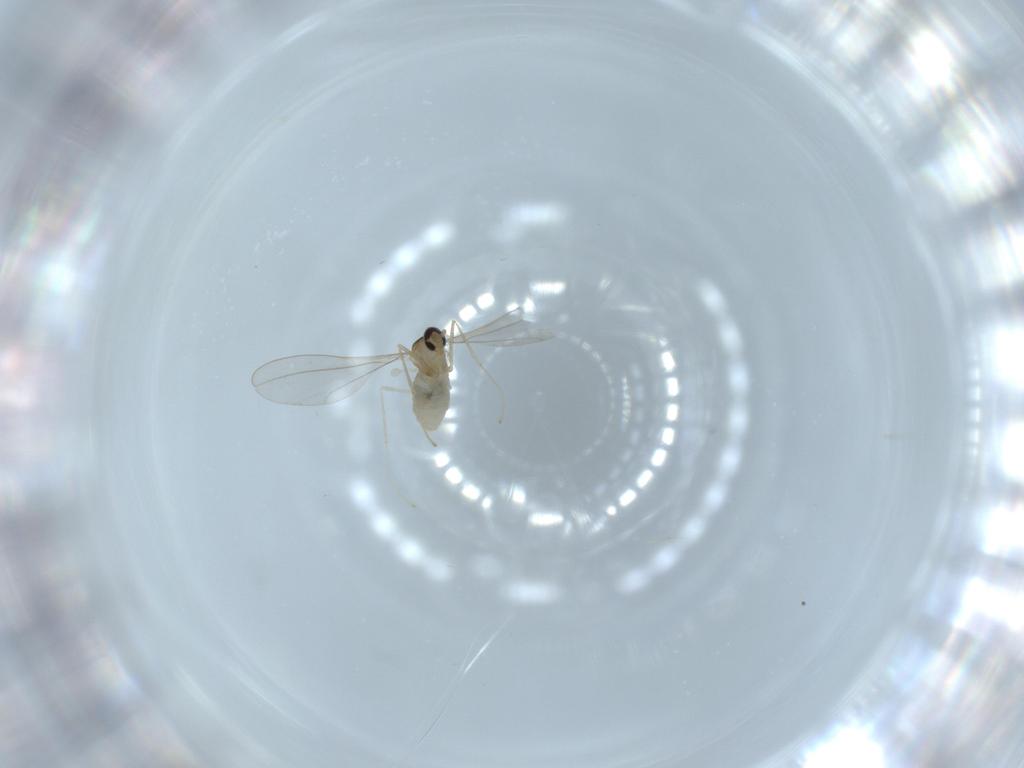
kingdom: Animalia
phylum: Arthropoda
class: Insecta
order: Diptera
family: Cecidomyiidae
